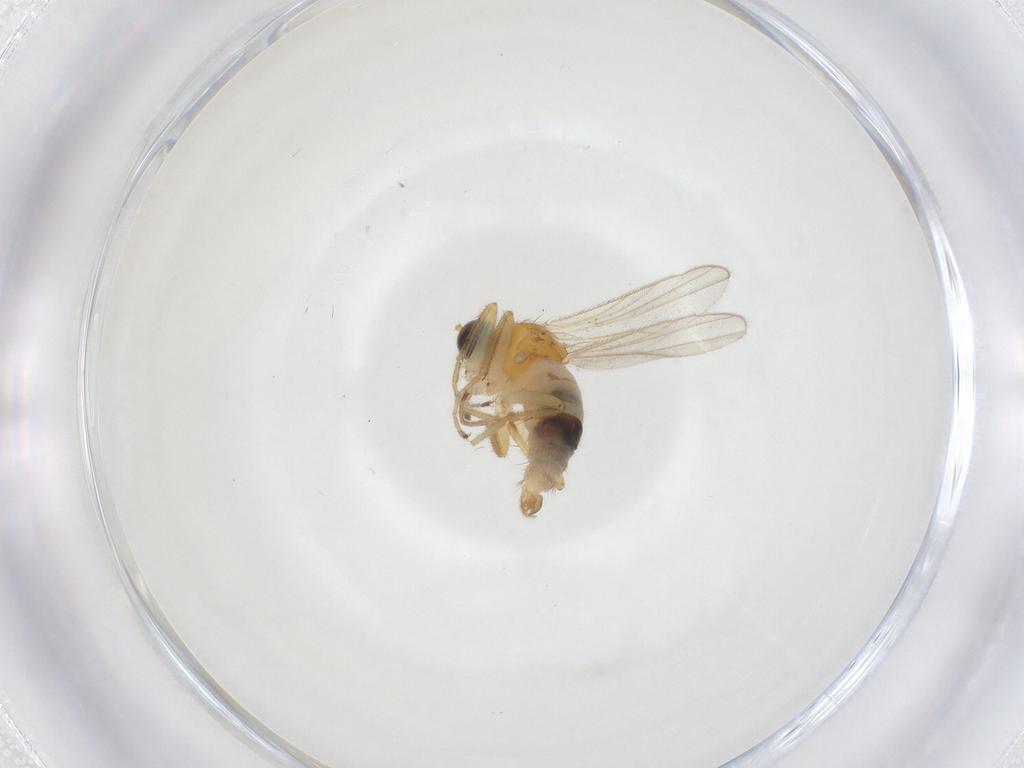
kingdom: Animalia
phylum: Arthropoda
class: Insecta
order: Diptera
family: Hybotidae
